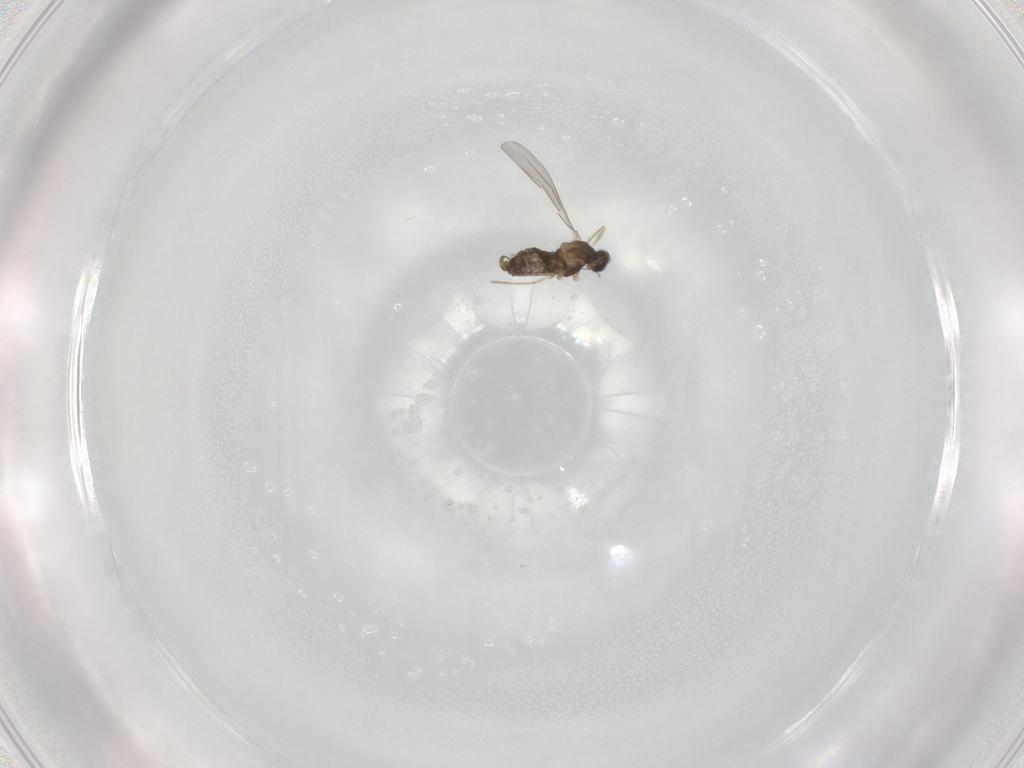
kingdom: Animalia
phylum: Arthropoda
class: Insecta
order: Diptera
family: Cecidomyiidae
